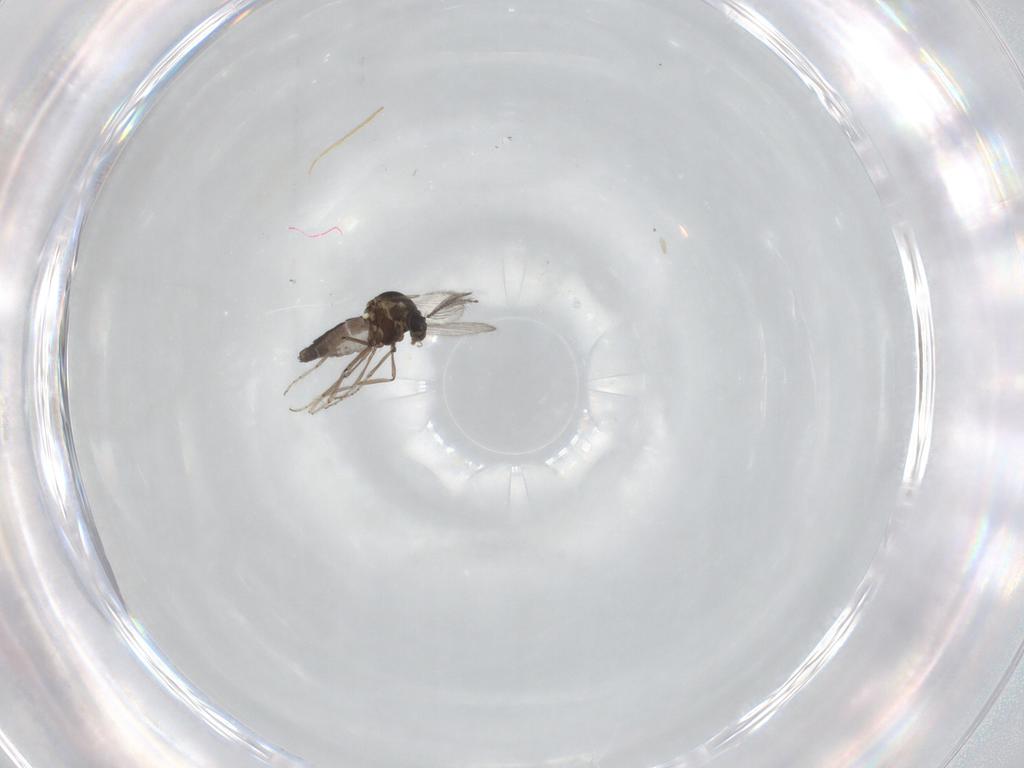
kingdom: Animalia
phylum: Arthropoda
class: Insecta
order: Diptera
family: Ceratopogonidae
